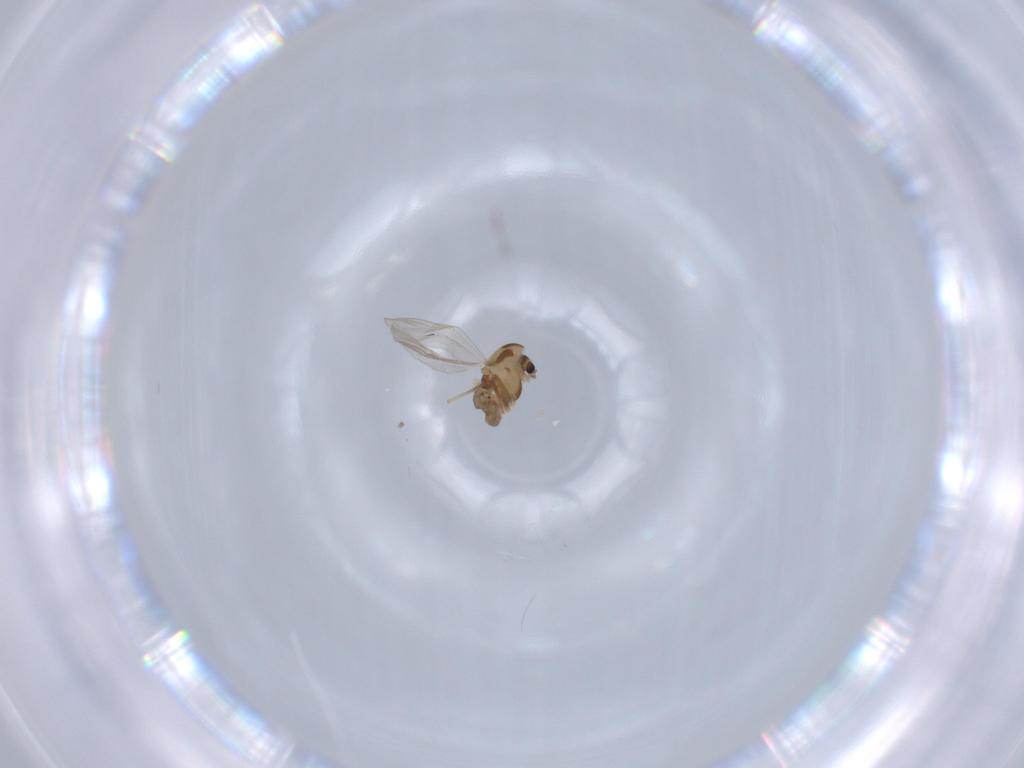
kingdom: Animalia
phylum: Arthropoda
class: Insecta
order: Diptera
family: Chironomidae
